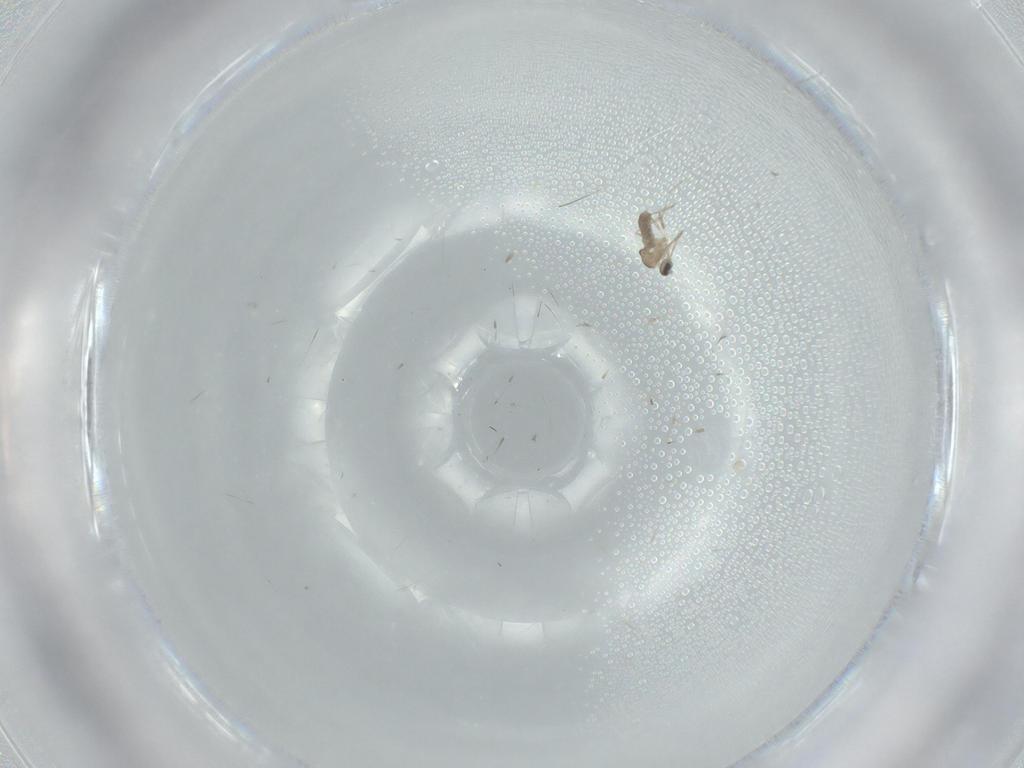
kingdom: Animalia
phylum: Arthropoda
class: Insecta
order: Diptera
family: Cecidomyiidae
